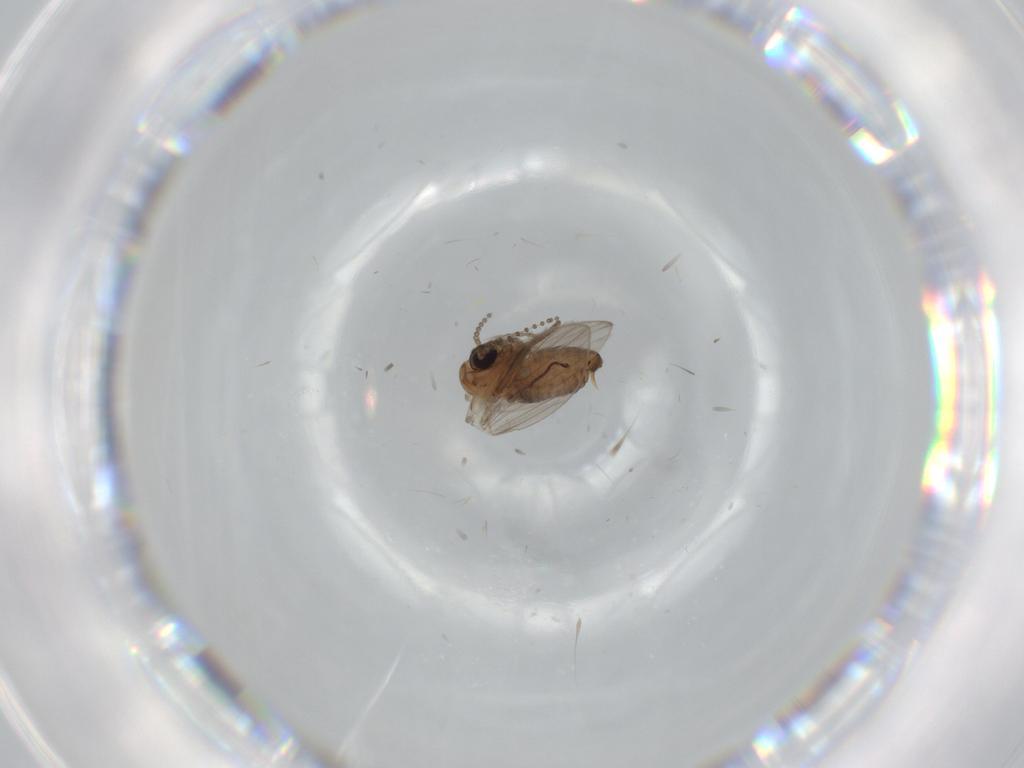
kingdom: Animalia
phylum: Arthropoda
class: Insecta
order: Diptera
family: Psychodidae
